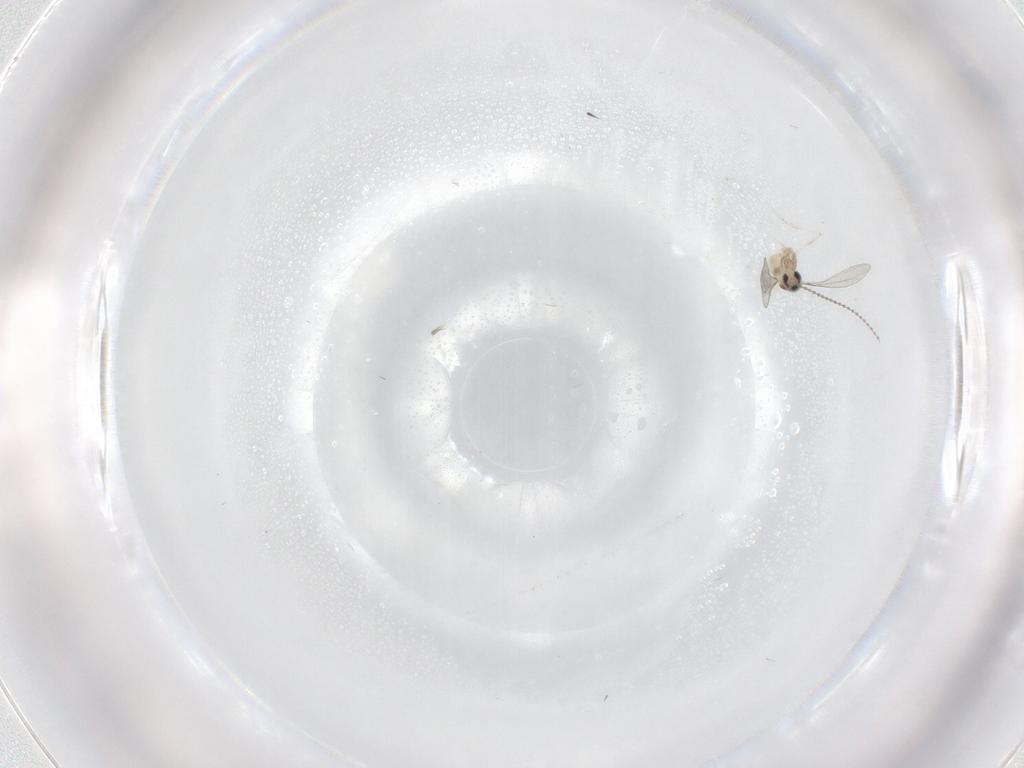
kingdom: Animalia
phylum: Arthropoda
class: Insecta
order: Diptera
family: Cecidomyiidae
